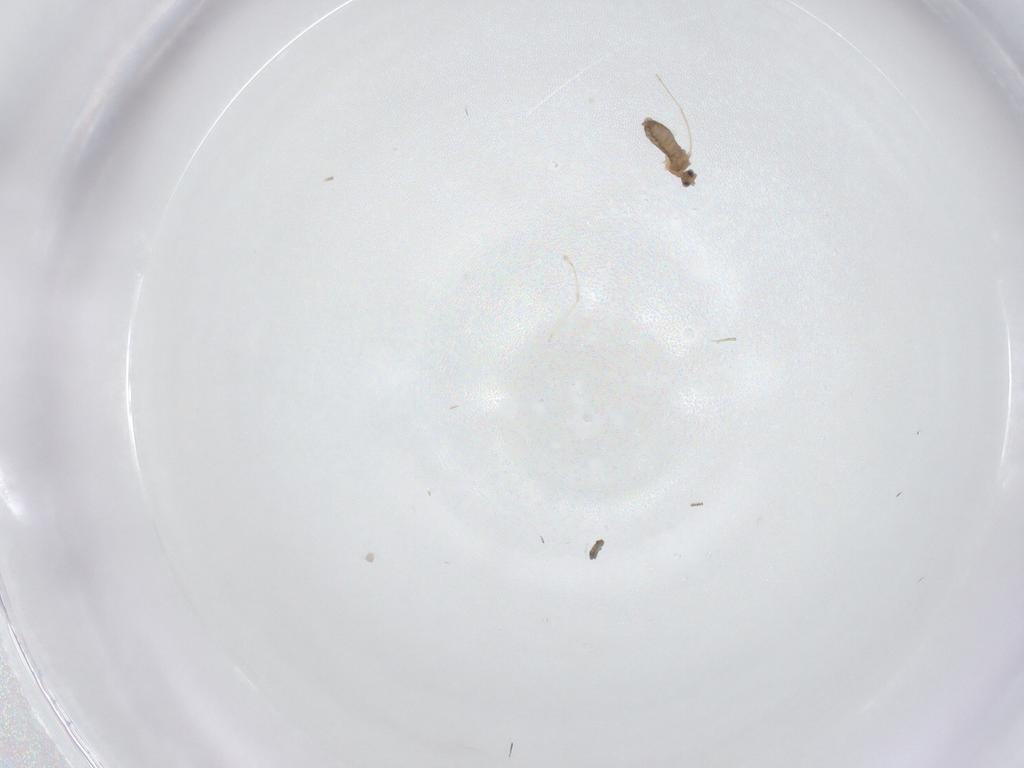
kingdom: Animalia
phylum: Arthropoda
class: Insecta
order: Diptera
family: Cecidomyiidae
